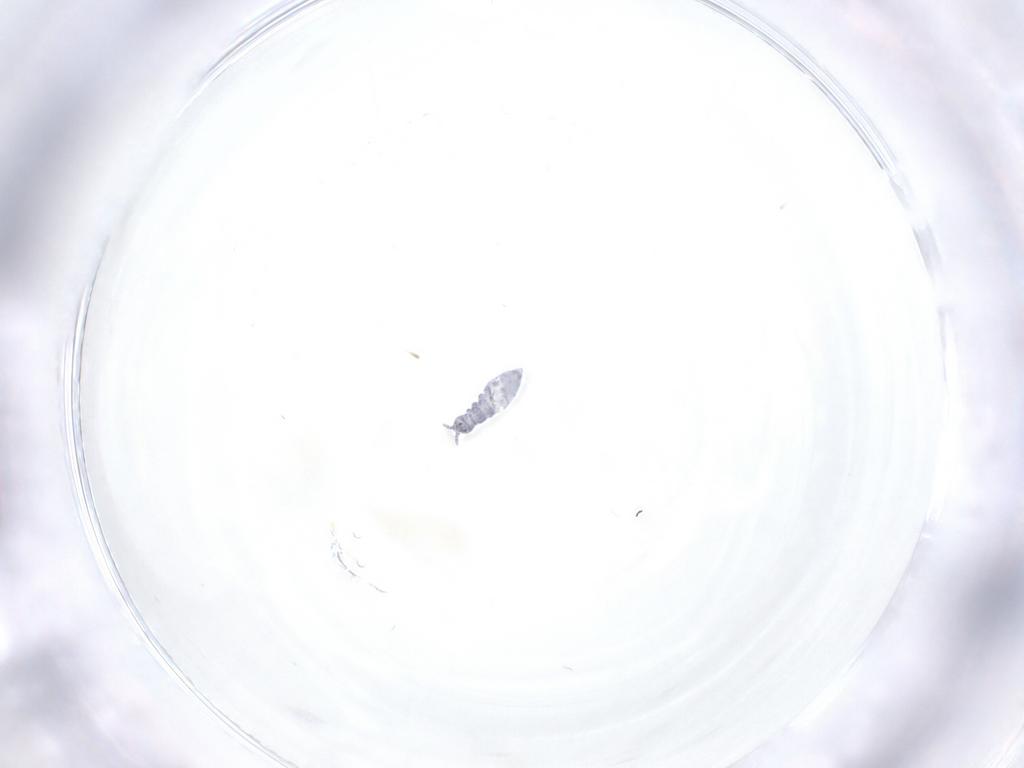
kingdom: Animalia
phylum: Arthropoda
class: Collembola
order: Poduromorpha
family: Hypogastruridae
